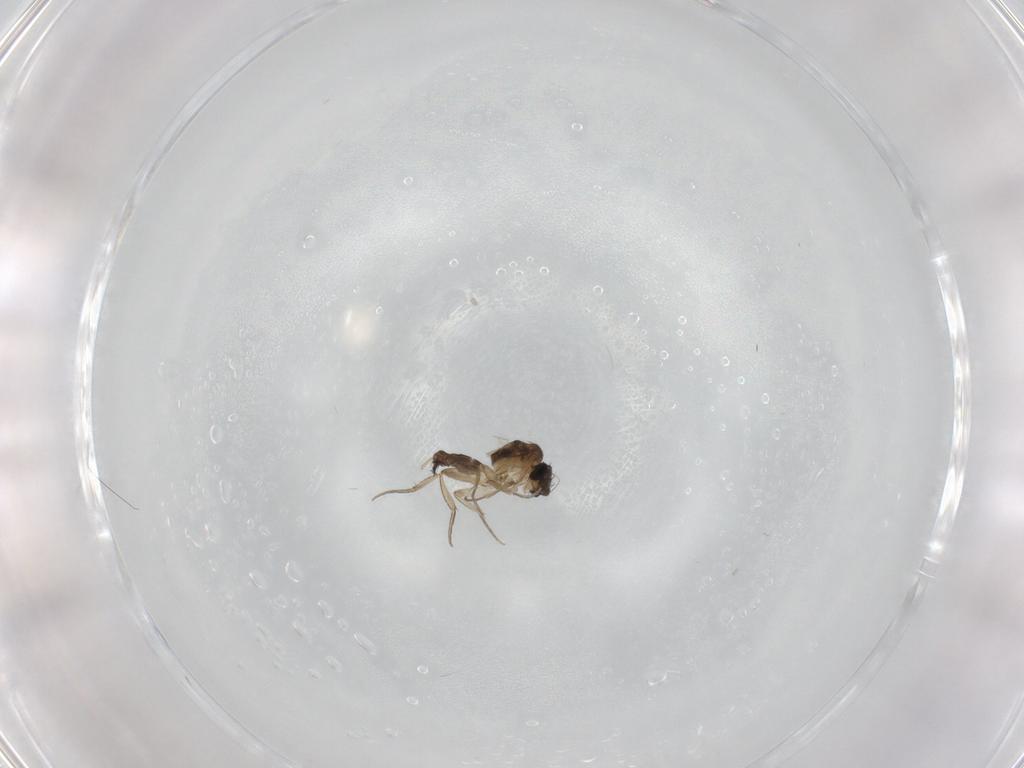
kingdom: Animalia
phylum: Arthropoda
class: Insecta
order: Diptera
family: Phoridae
